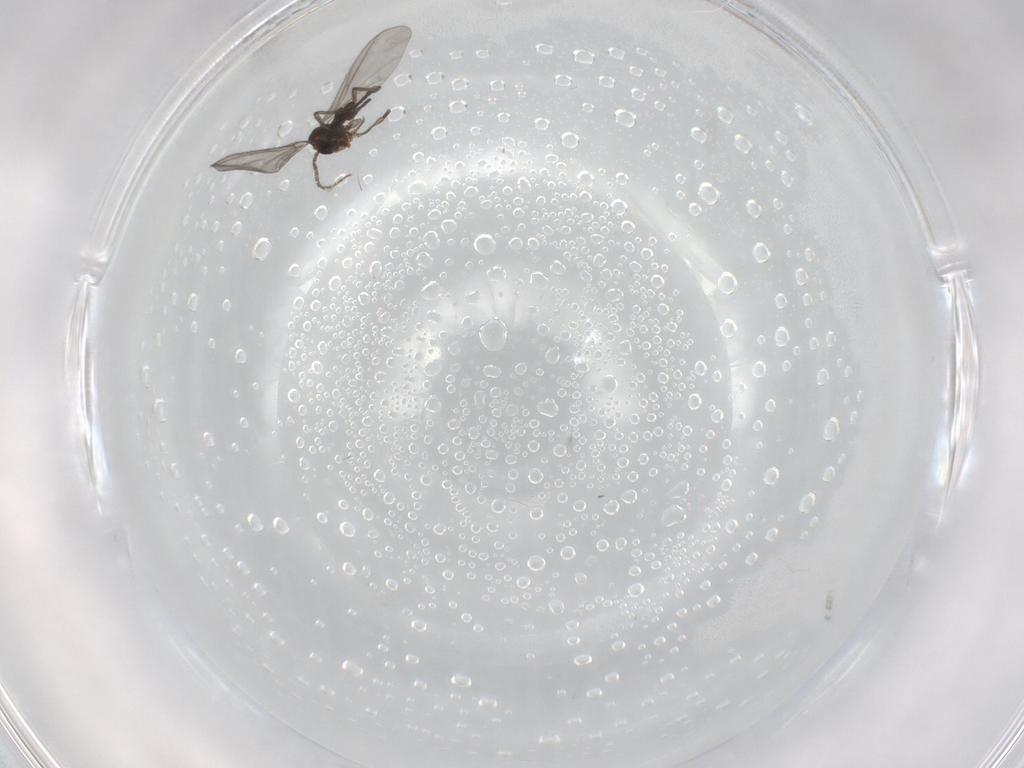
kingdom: Animalia
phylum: Arthropoda
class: Insecta
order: Diptera
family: Sciaridae
